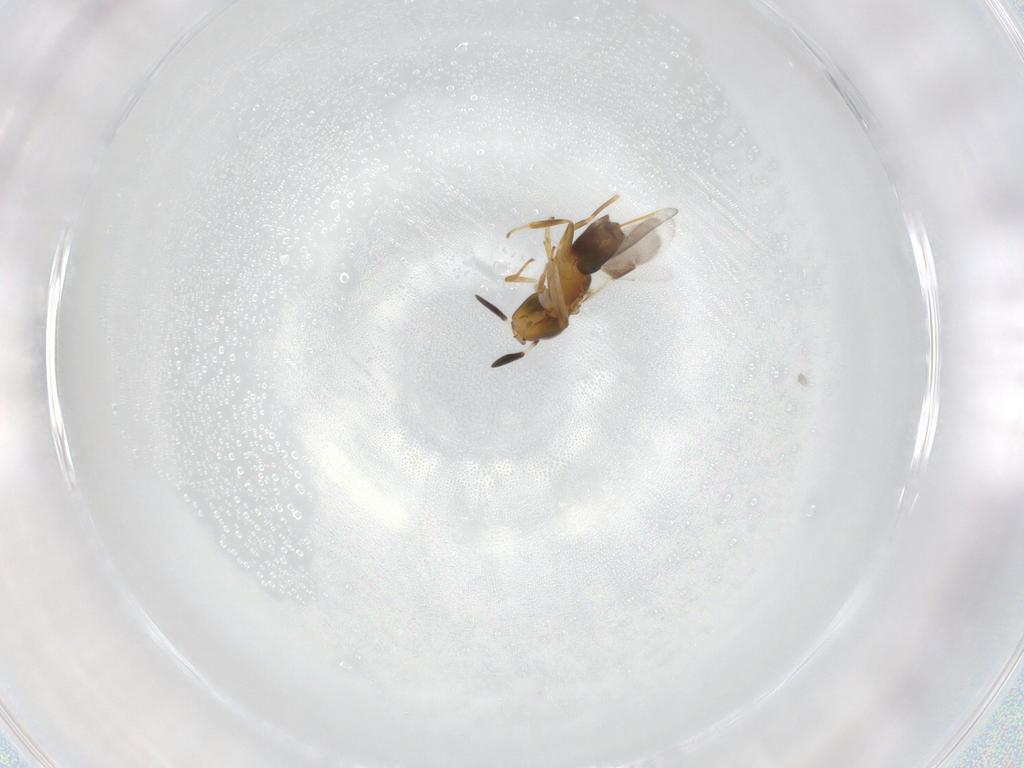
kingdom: Animalia
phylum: Arthropoda
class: Insecta
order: Hymenoptera
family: Encyrtidae
